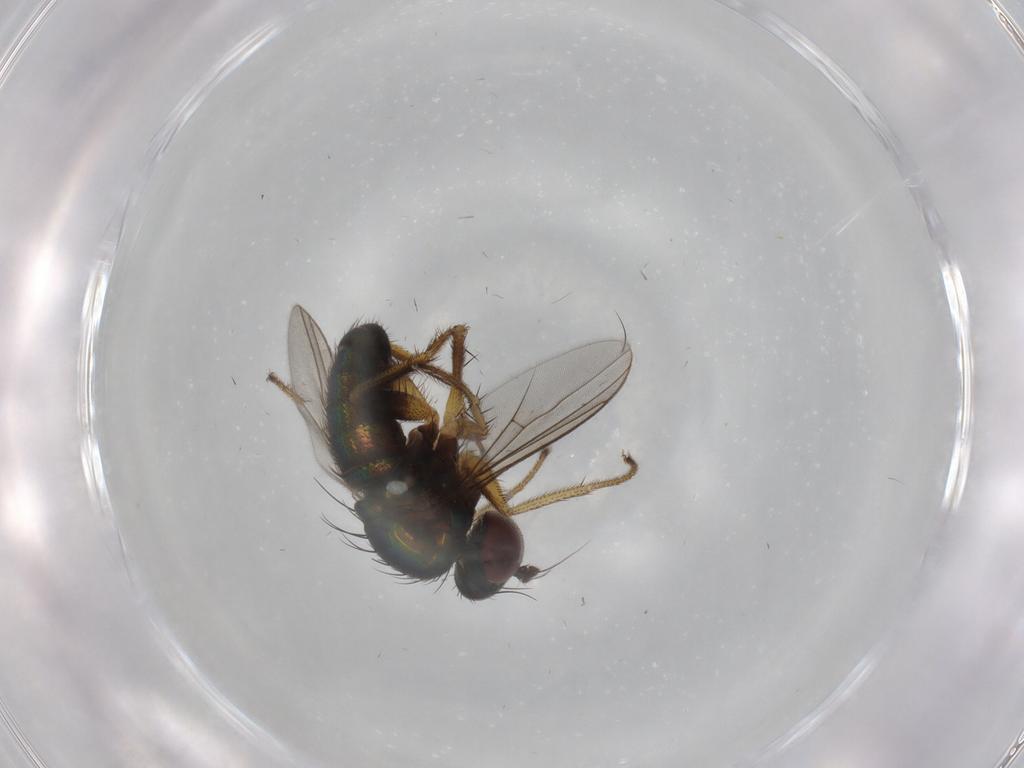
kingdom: Animalia
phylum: Arthropoda
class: Insecta
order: Diptera
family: Dolichopodidae
